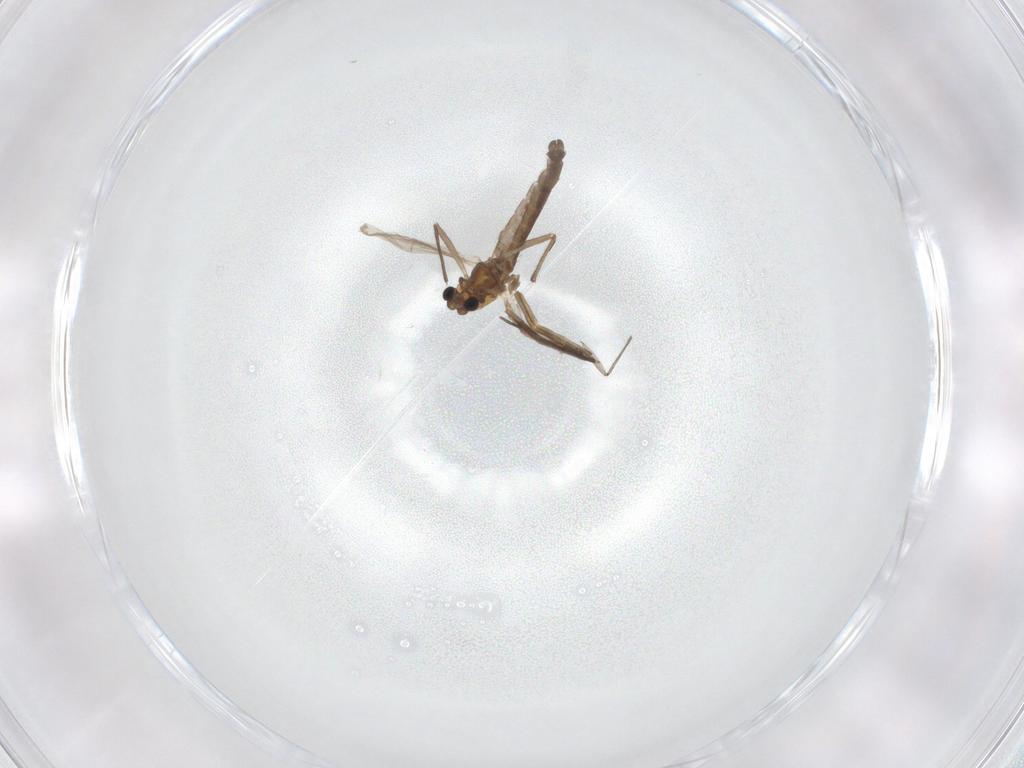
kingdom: Animalia
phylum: Arthropoda
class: Insecta
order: Diptera
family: Chironomidae
